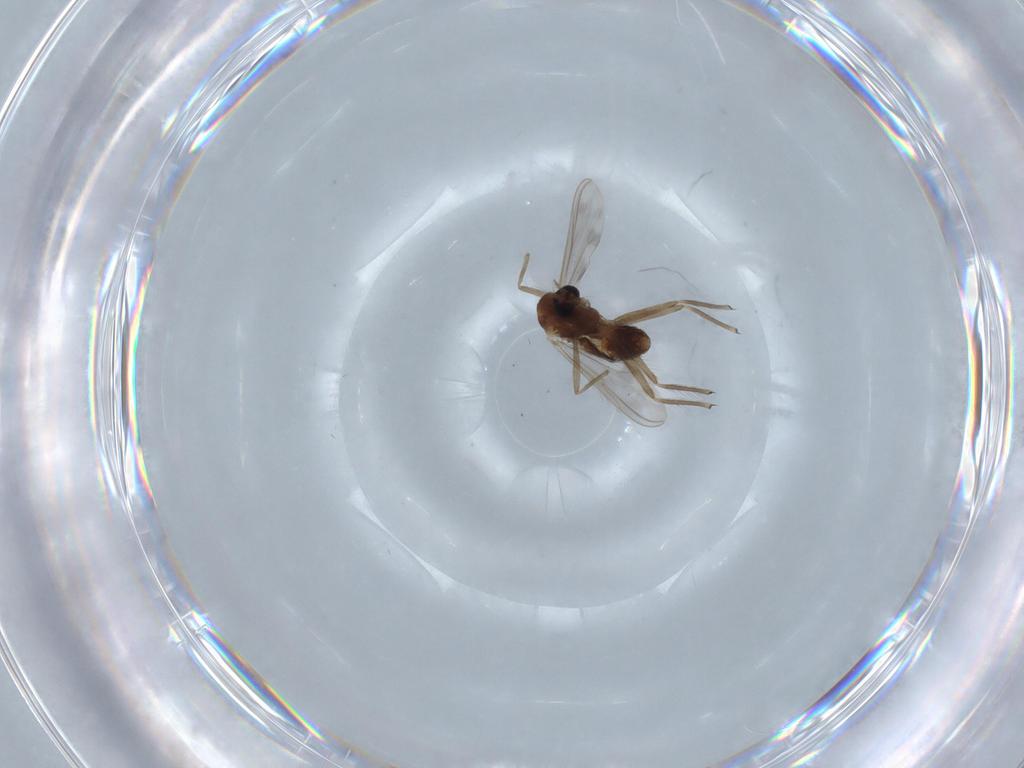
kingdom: Animalia
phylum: Arthropoda
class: Insecta
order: Diptera
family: Chironomidae
